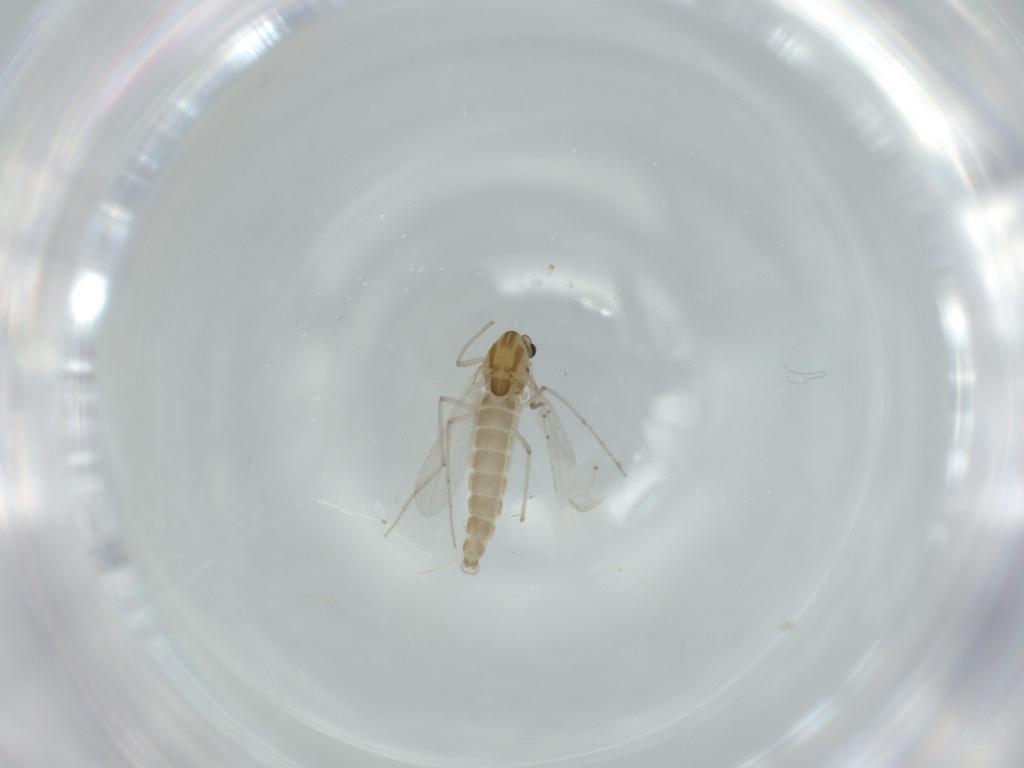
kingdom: Animalia
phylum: Arthropoda
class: Insecta
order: Diptera
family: Chironomidae
